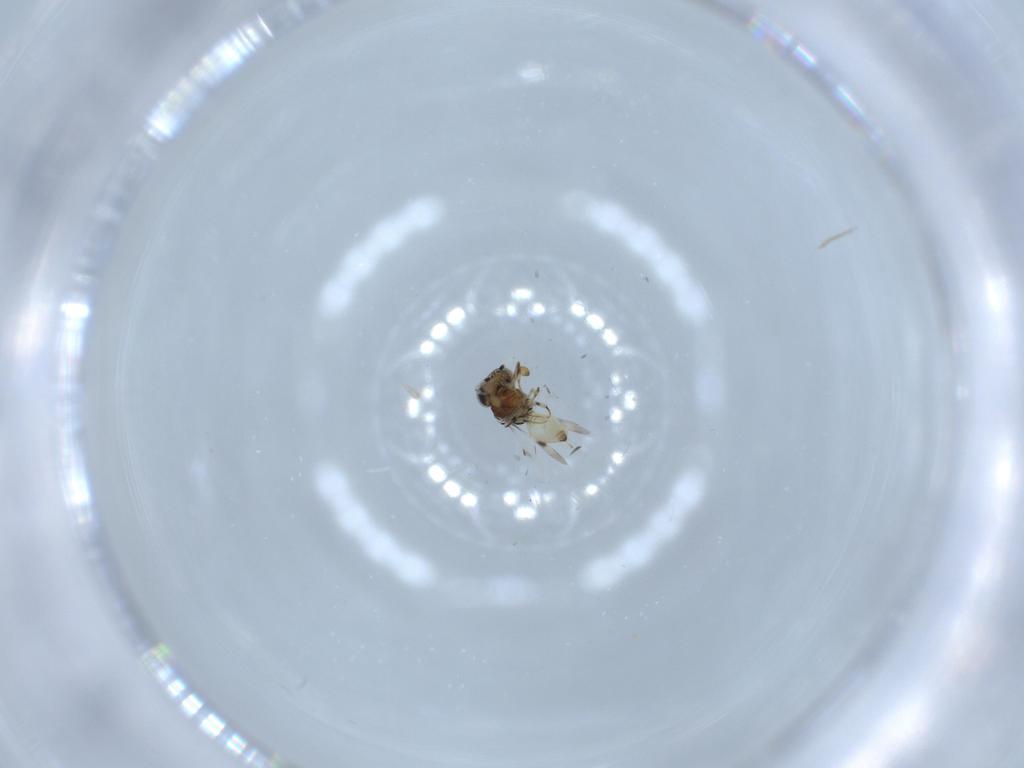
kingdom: Animalia
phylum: Arthropoda
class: Insecta
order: Hymenoptera
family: Scelionidae
